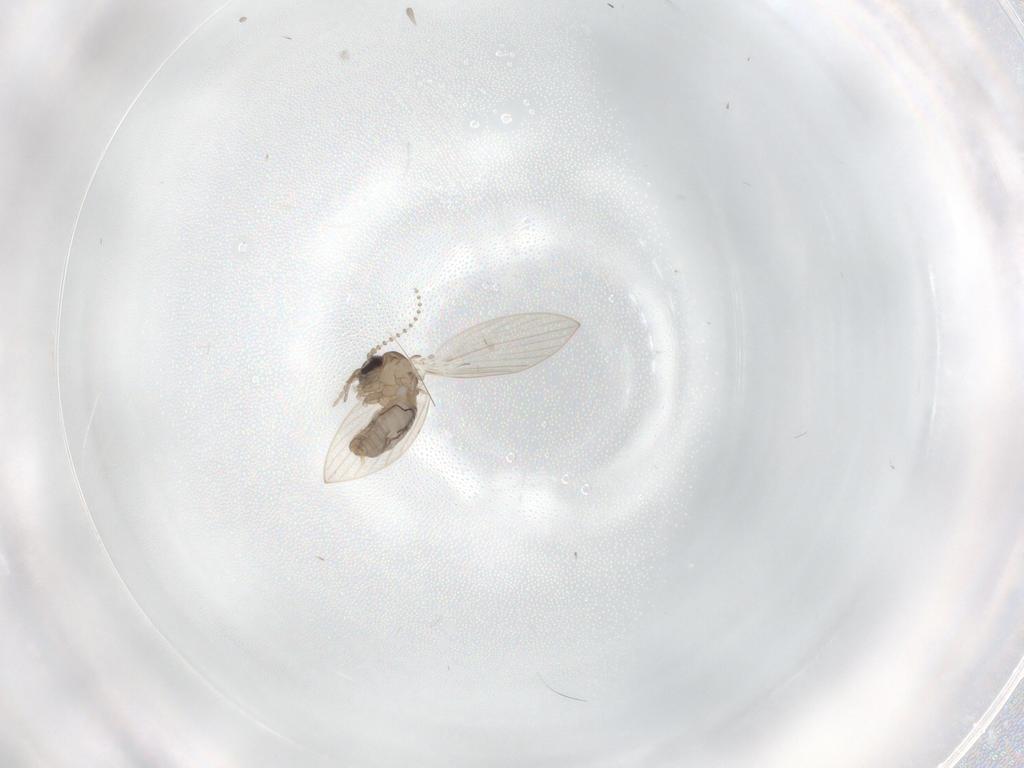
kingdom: Animalia
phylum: Arthropoda
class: Insecta
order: Diptera
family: Psychodidae
